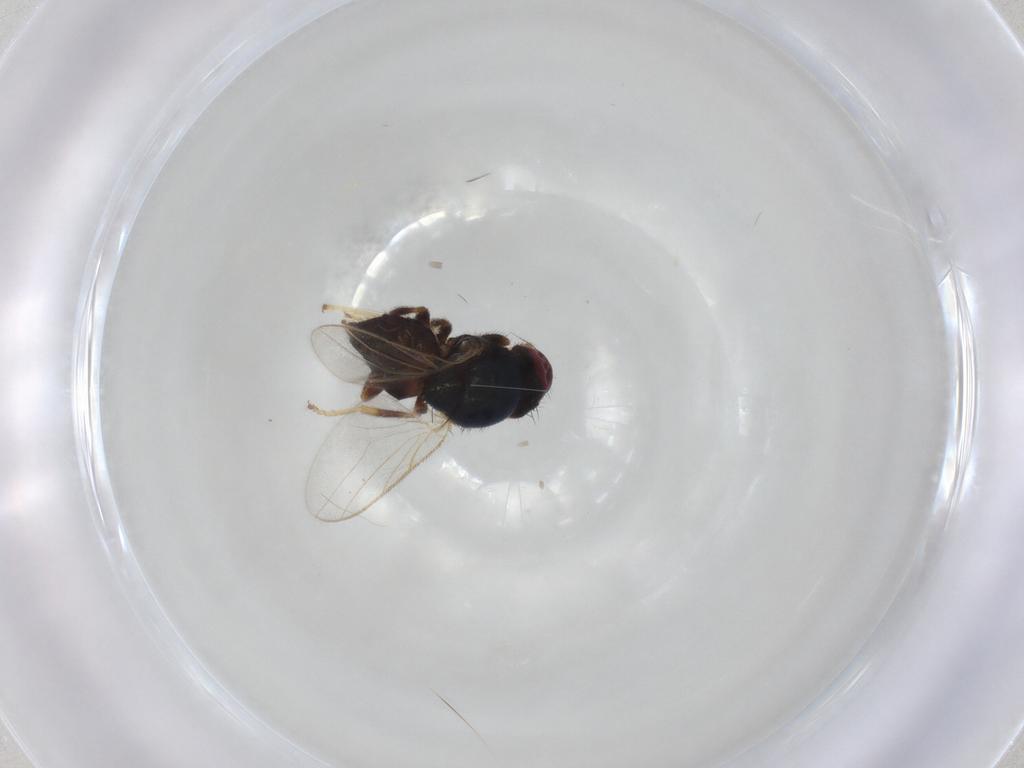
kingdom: Animalia
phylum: Arthropoda
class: Insecta
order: Diptera
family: Chloropidae
